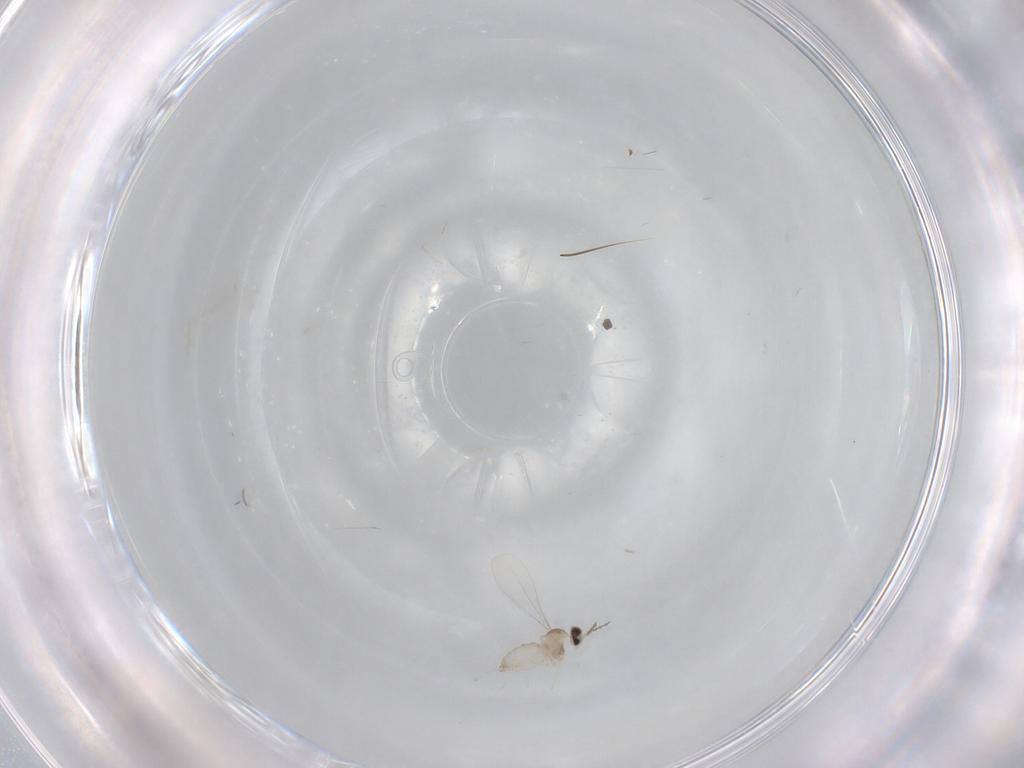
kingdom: Animalia
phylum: Arthropoda
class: Insecta
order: Diptera
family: Cecidomyiidae
